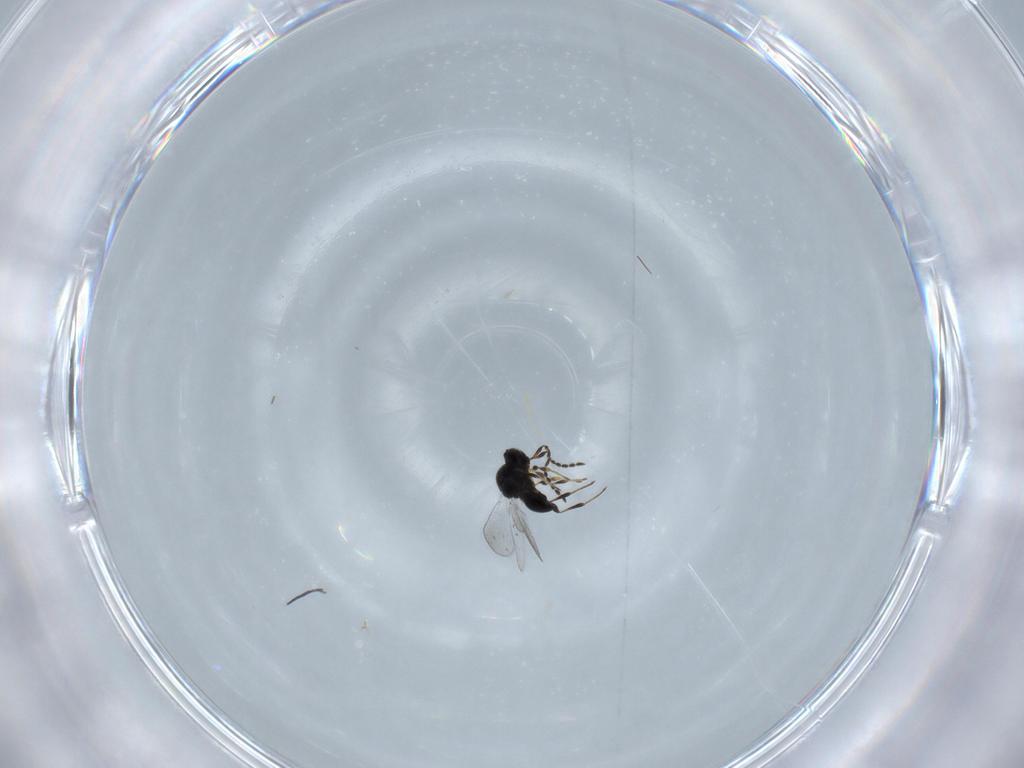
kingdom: Animalia
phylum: Arthropoda
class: Insecta
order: Hymenoptera
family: Platygastridae
